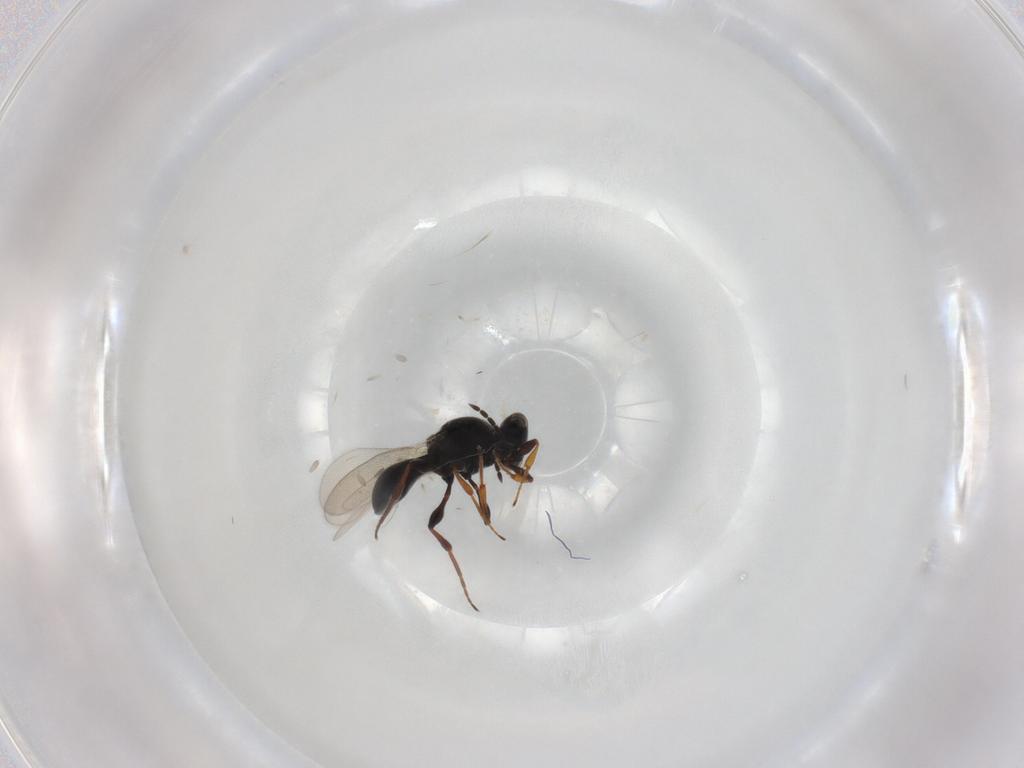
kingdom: Animalia
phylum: Arthropoda
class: Insecta
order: Hymenoptera
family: Platygastridae
